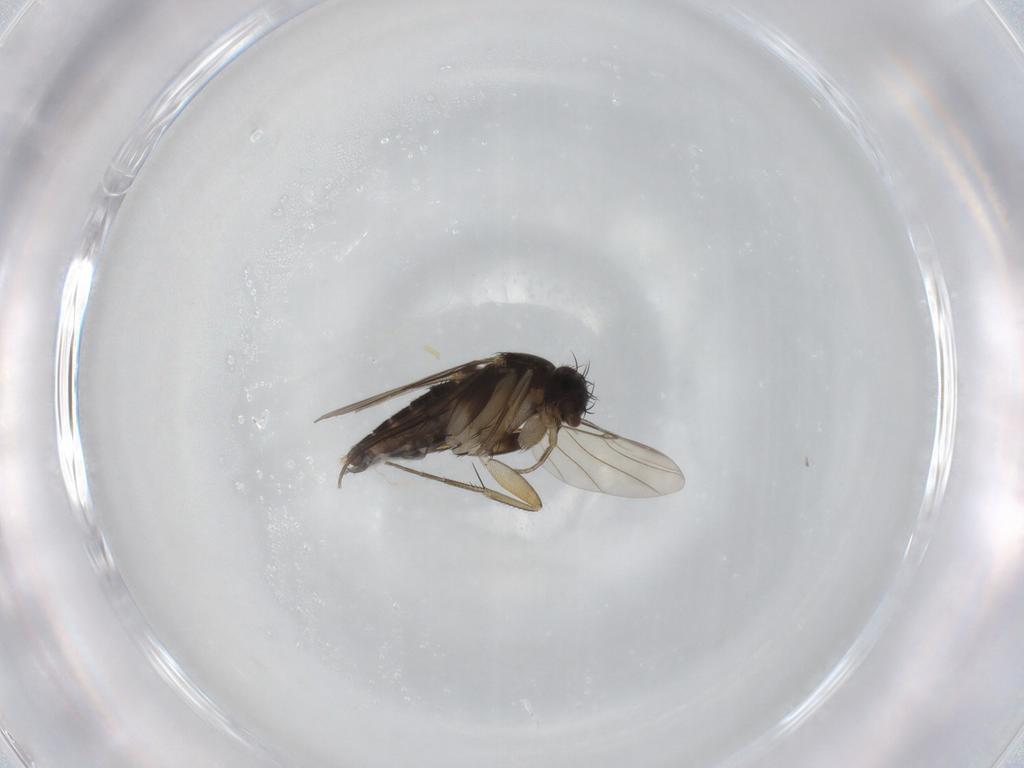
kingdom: Animalia
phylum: Arthropoda
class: Insecta
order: Diptera
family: Phoridae
